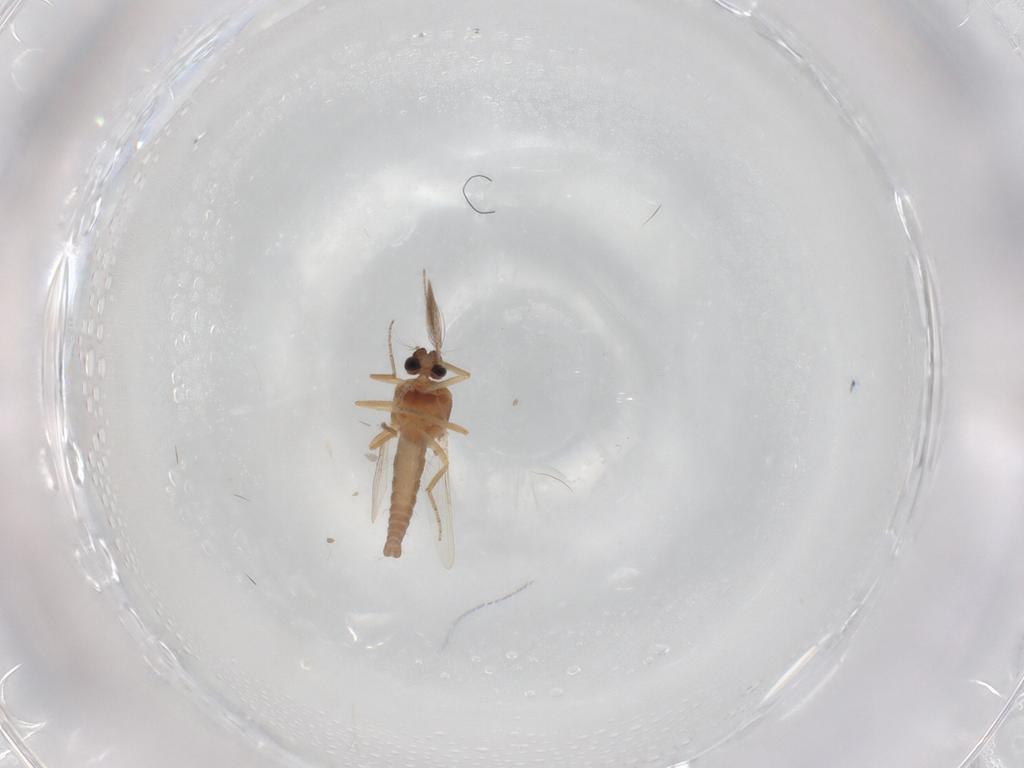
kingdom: Animalia
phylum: Arthropoda
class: Insecta
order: Diptera
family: Ceratopogonidae
